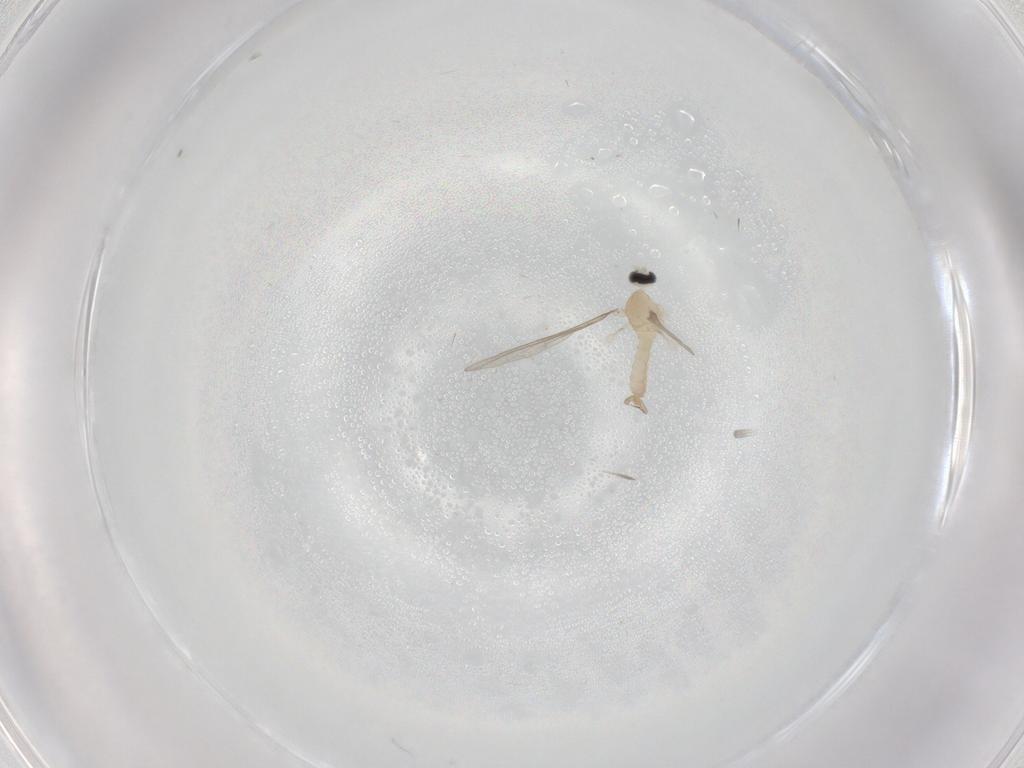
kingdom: Animalia
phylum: Arthropoda
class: Insecta
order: Diptera
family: Cecidomyiidae
